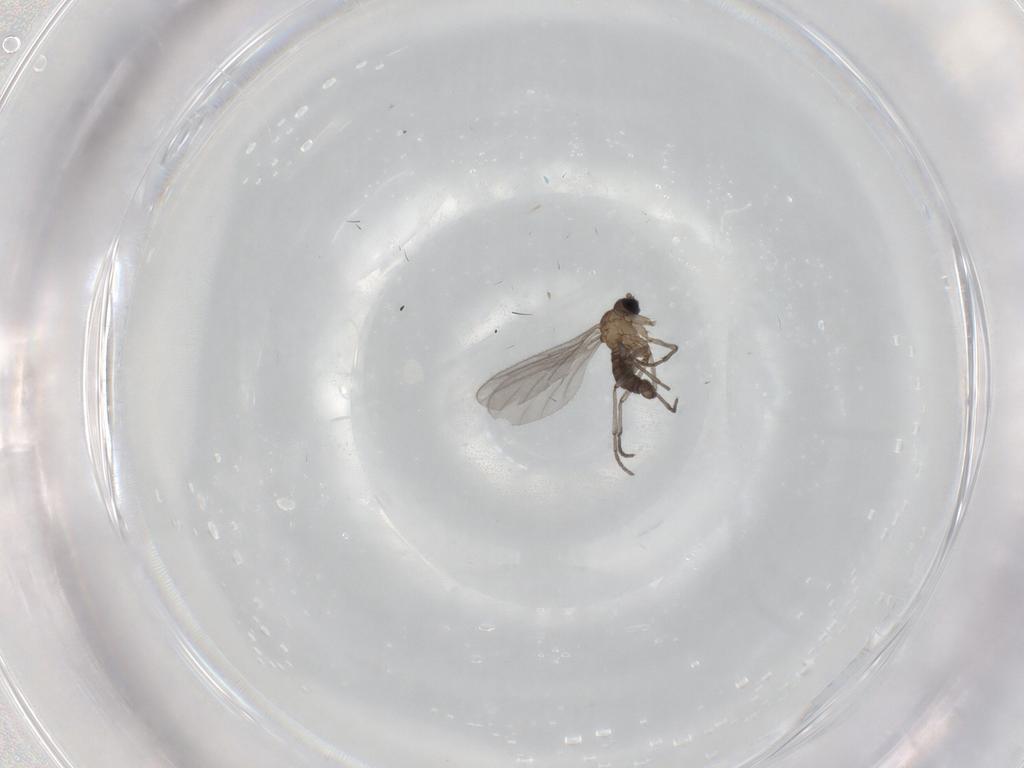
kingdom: Animalia
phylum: Arthropoda
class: Insecta
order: Diptera
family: Sciaridae
